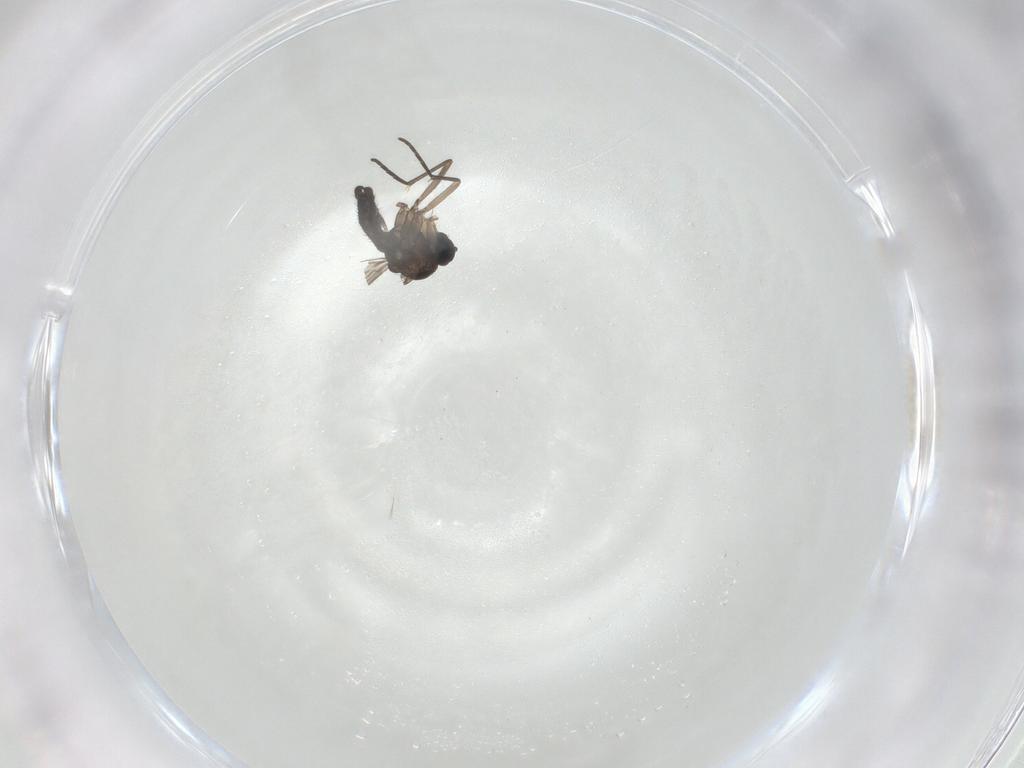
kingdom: Animalia
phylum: Arthropoda
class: Insecta
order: Diptera
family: Sciaridae
